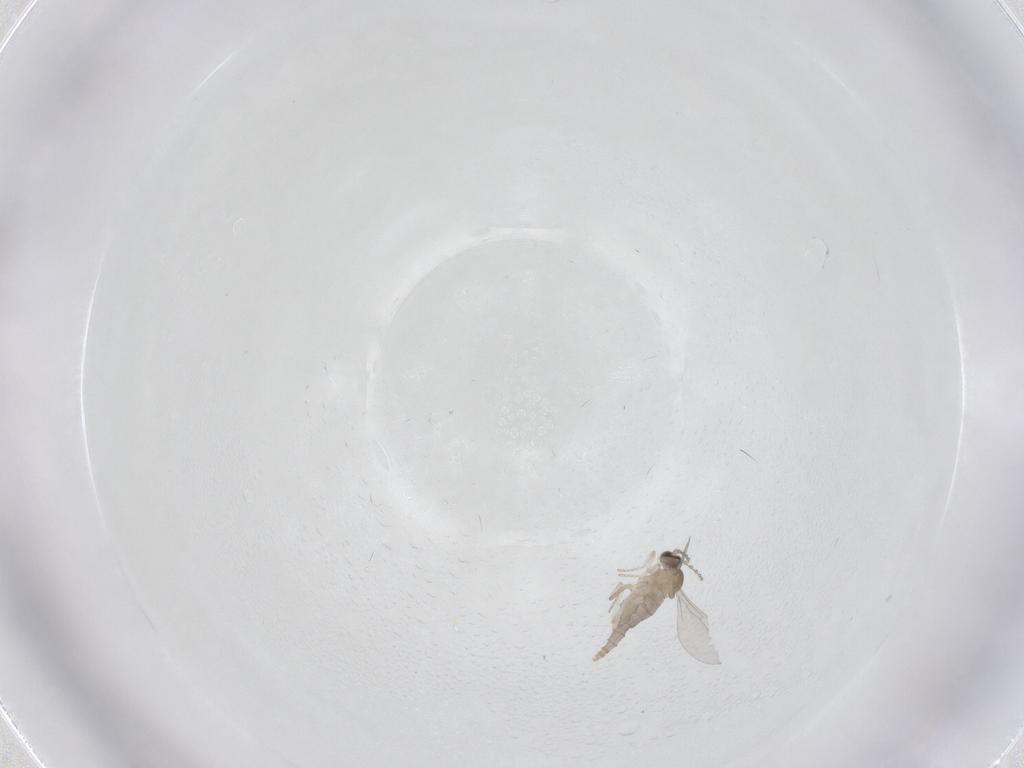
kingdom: Animalia
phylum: Arthropoda
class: Insecta
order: Diptera
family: Cecidomyiidae
